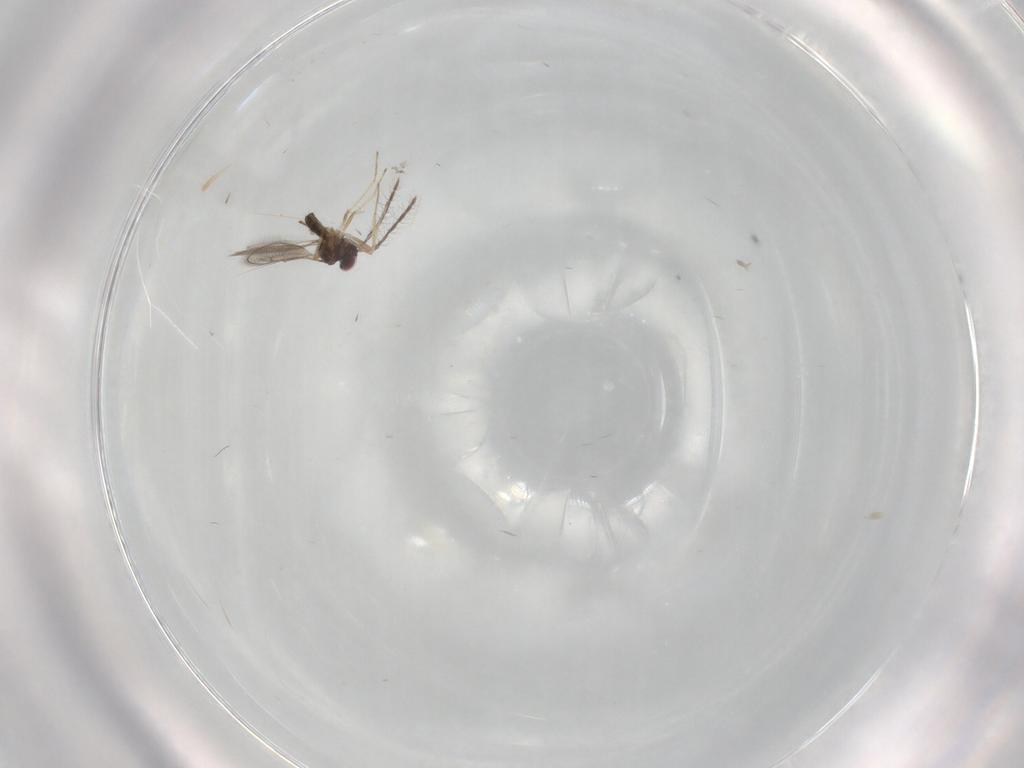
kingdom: Animalia
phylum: Arthropoda
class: Insecta
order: Hymenoptera
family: Eulophidae
